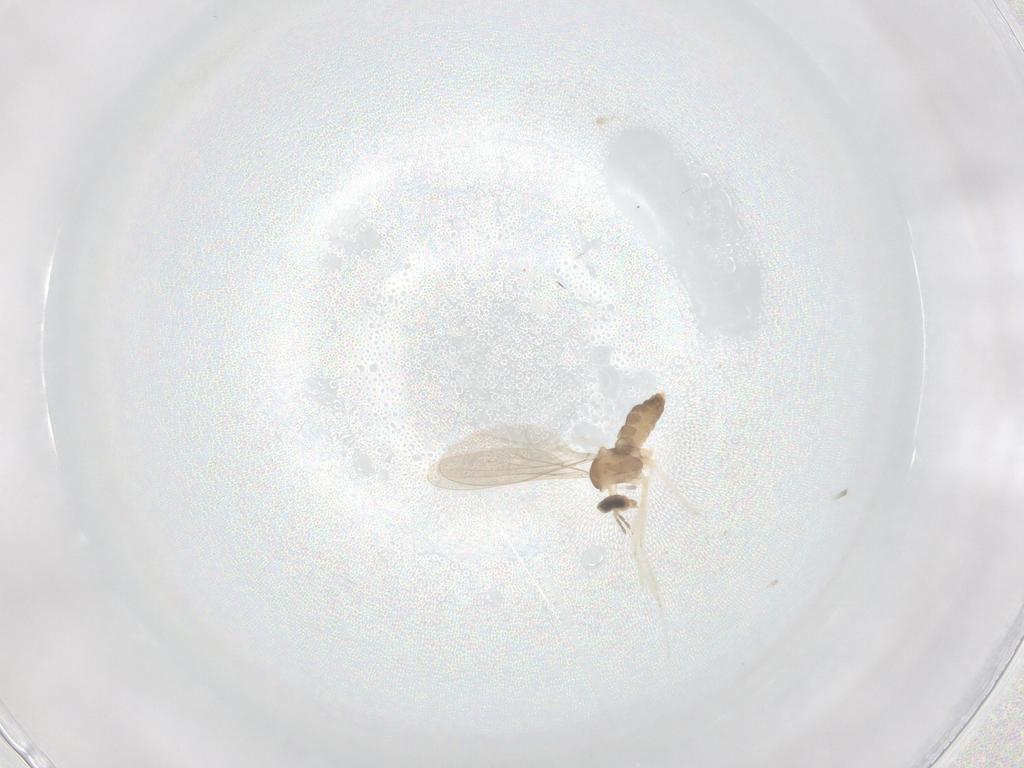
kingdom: Animalia
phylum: Arthropoda
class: Insecta
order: Diptera
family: Cecidomyiidae
